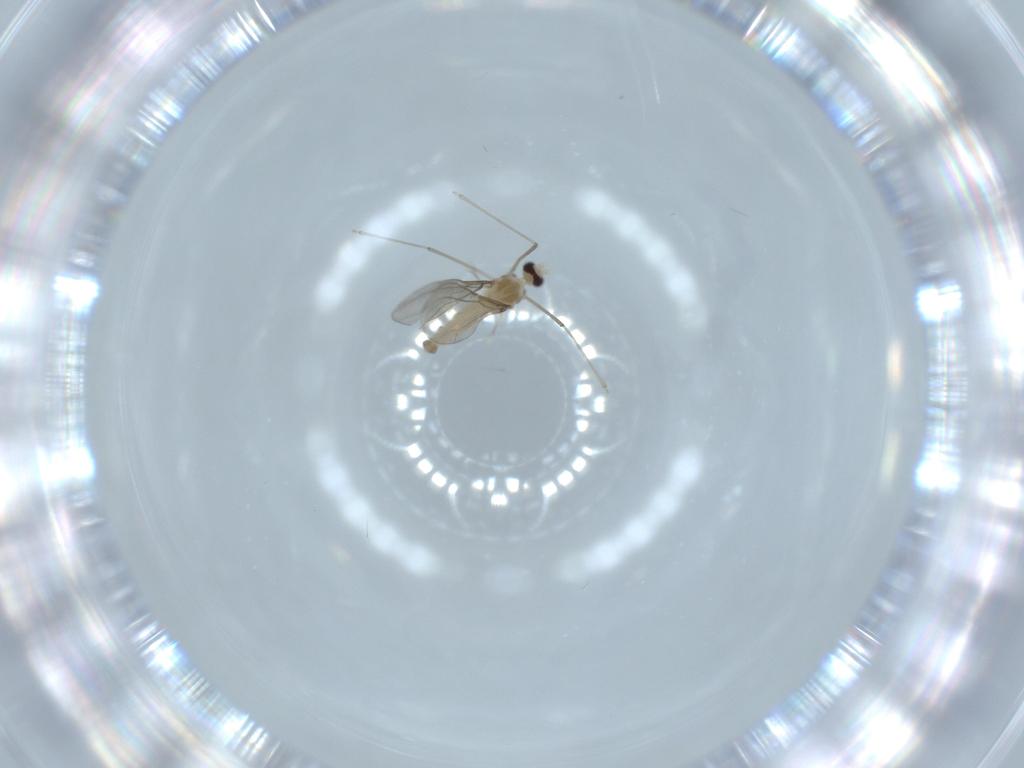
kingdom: Animalia
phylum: Arthropoda
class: Insecta
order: Diptera
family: Cecidomyiidae
